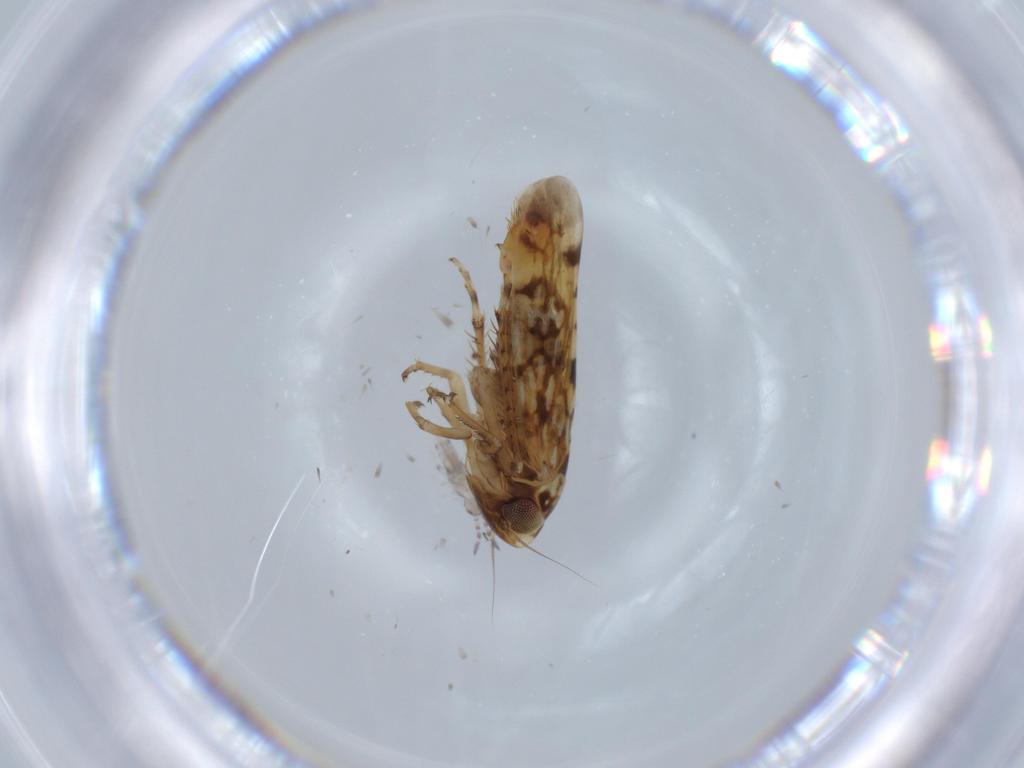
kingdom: Animalia
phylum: Arthropoda
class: Insecta
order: Hemiptera
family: Cicadellidae
